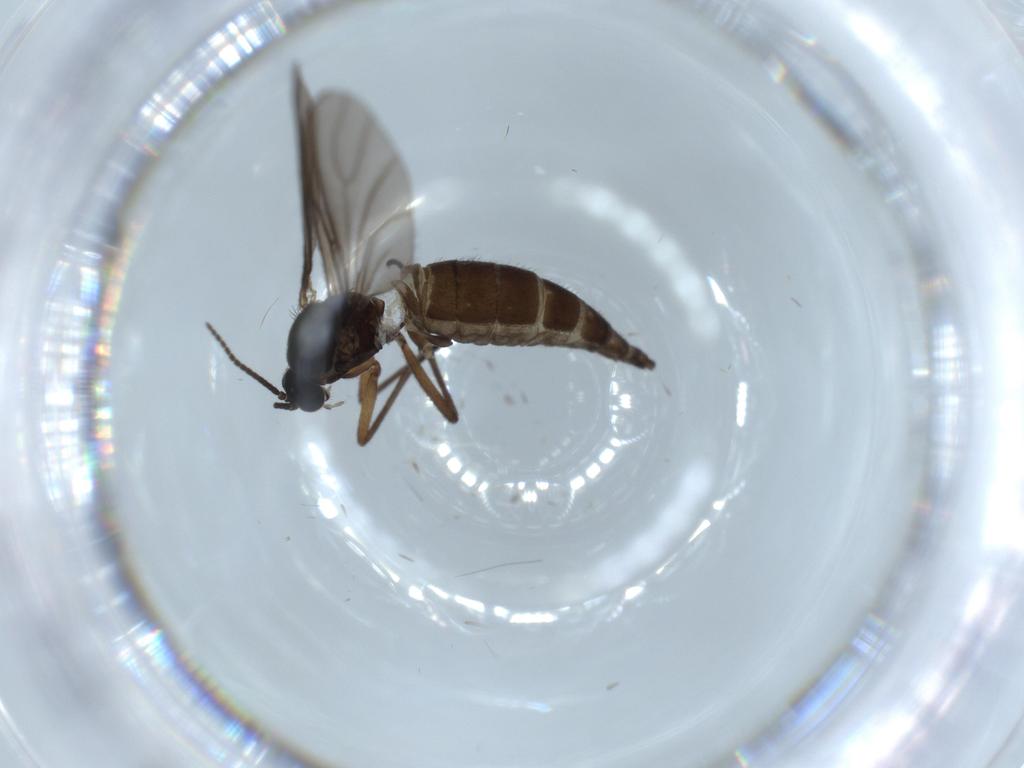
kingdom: Animalia
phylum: Arthropoda
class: Insecta
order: Diptera
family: Sciaridae
